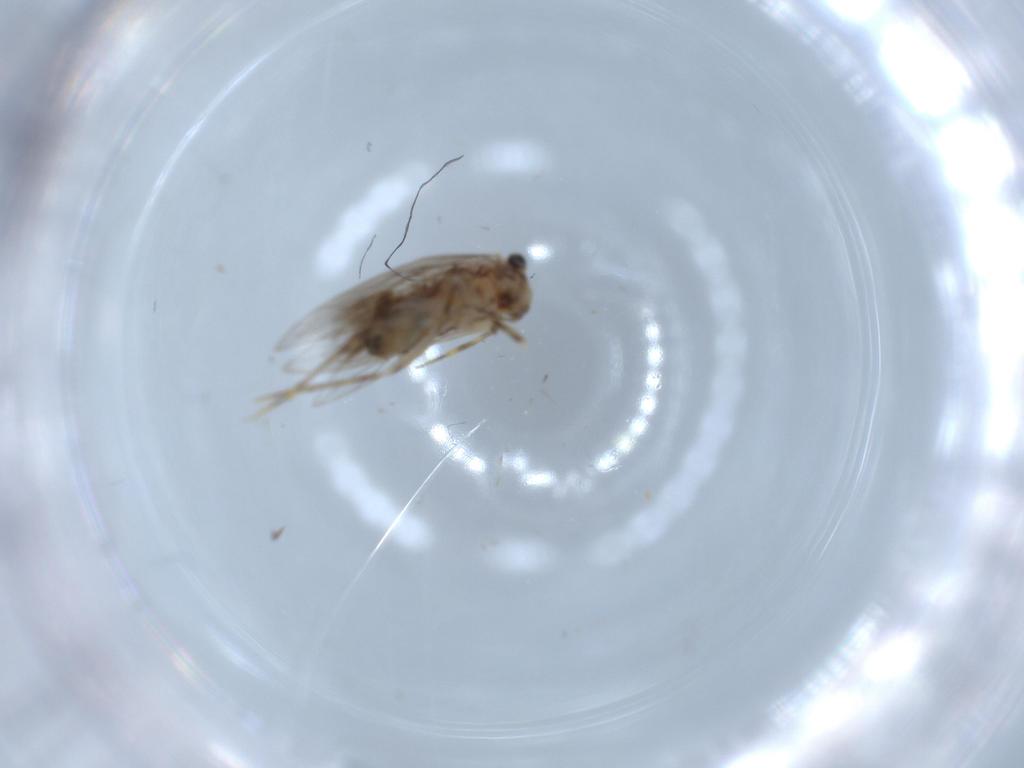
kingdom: Animalia
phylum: Arthropoda
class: Insecta
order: Psocodea
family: Lepidopsocidae
